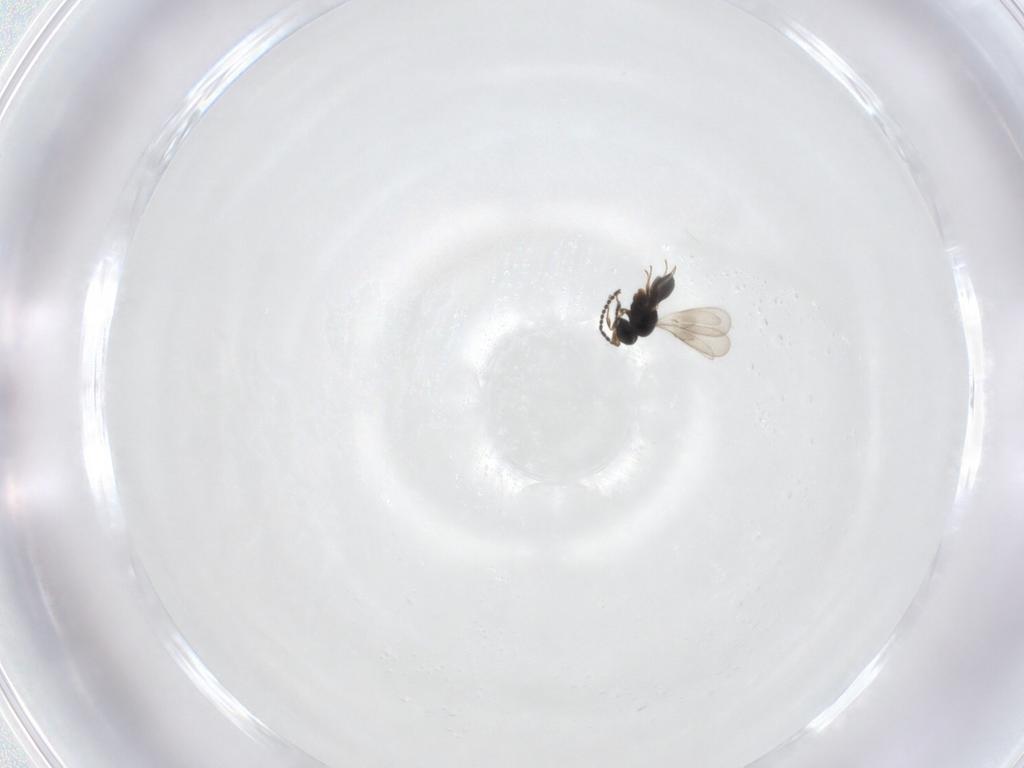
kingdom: Animalia
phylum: Arthropoda
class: Insecta
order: Hymenoptera
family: Scelionidae
